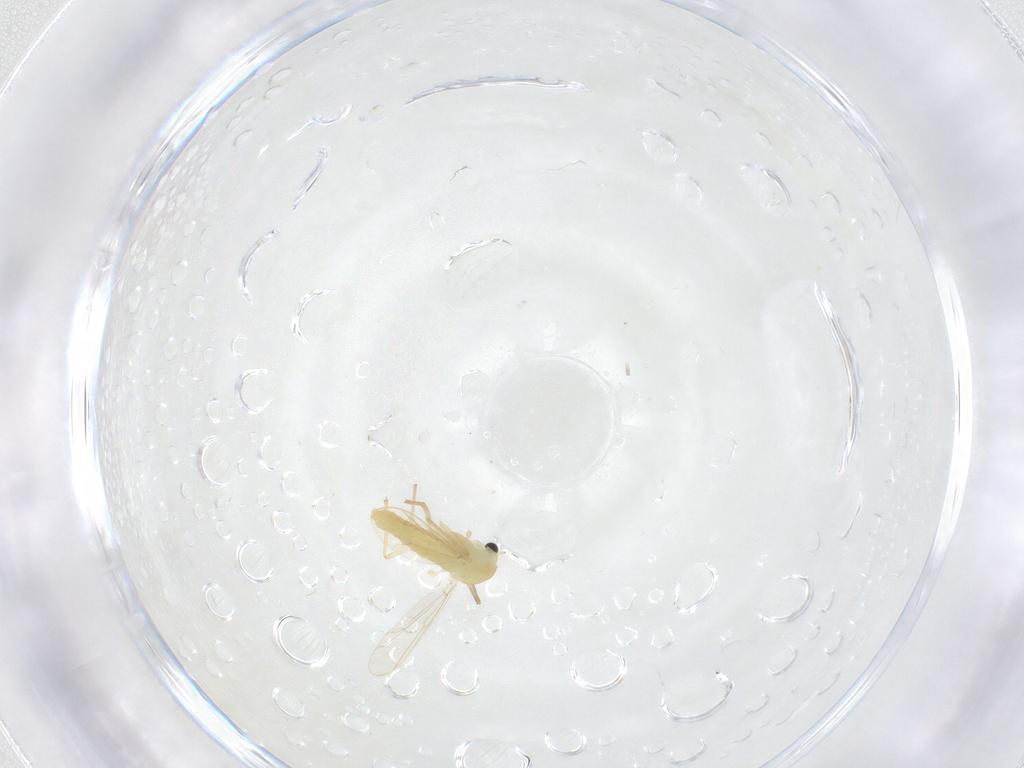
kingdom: Animalia
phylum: Arthropoda
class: Insecta
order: Diptera
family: Chironomidae
